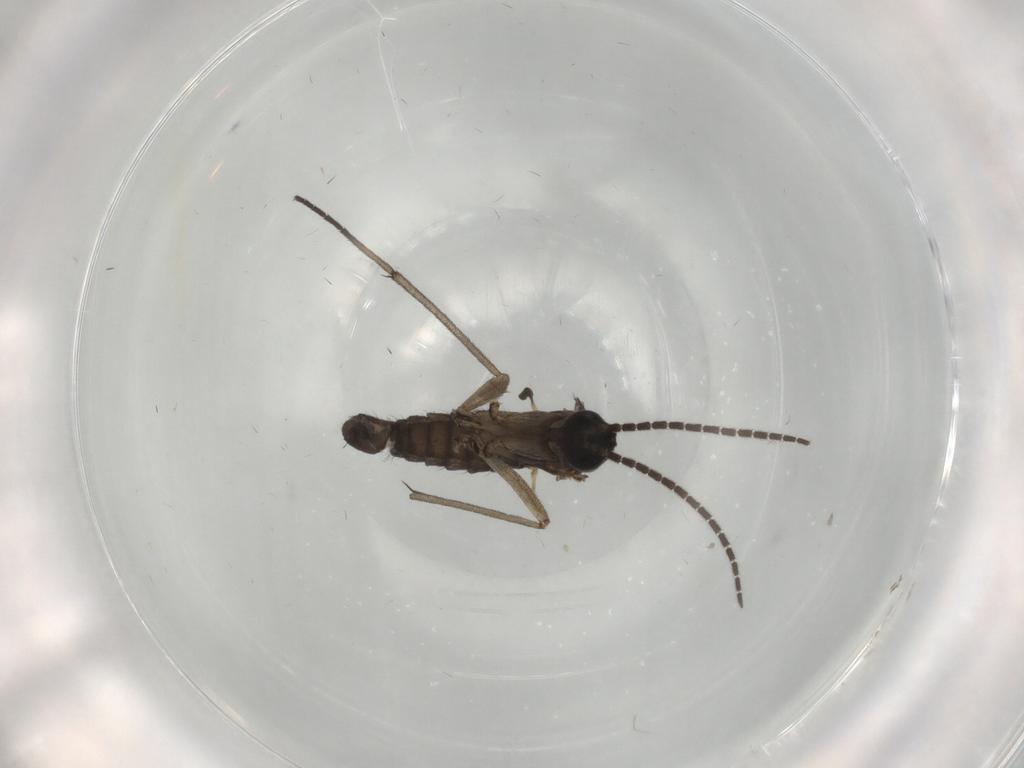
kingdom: Animalia
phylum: Arthropoda
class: Insecta
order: Diptera
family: Sciaridae
